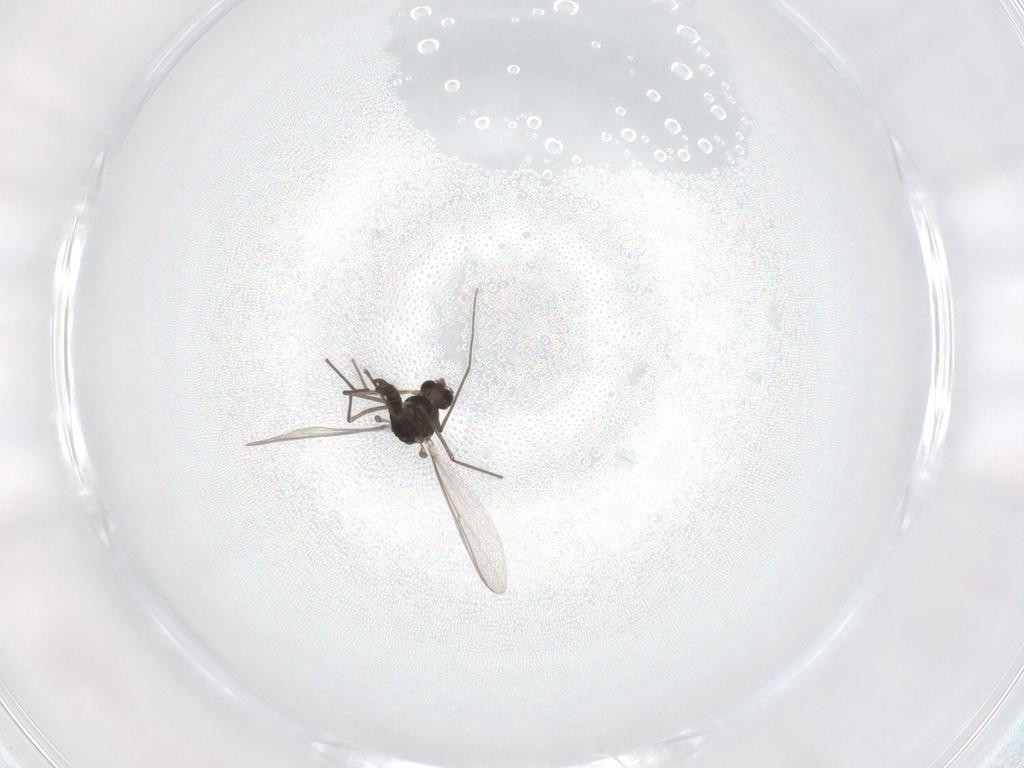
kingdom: Animalia
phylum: Arthropoda
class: Insecta
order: Diptera
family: Chironomidae
